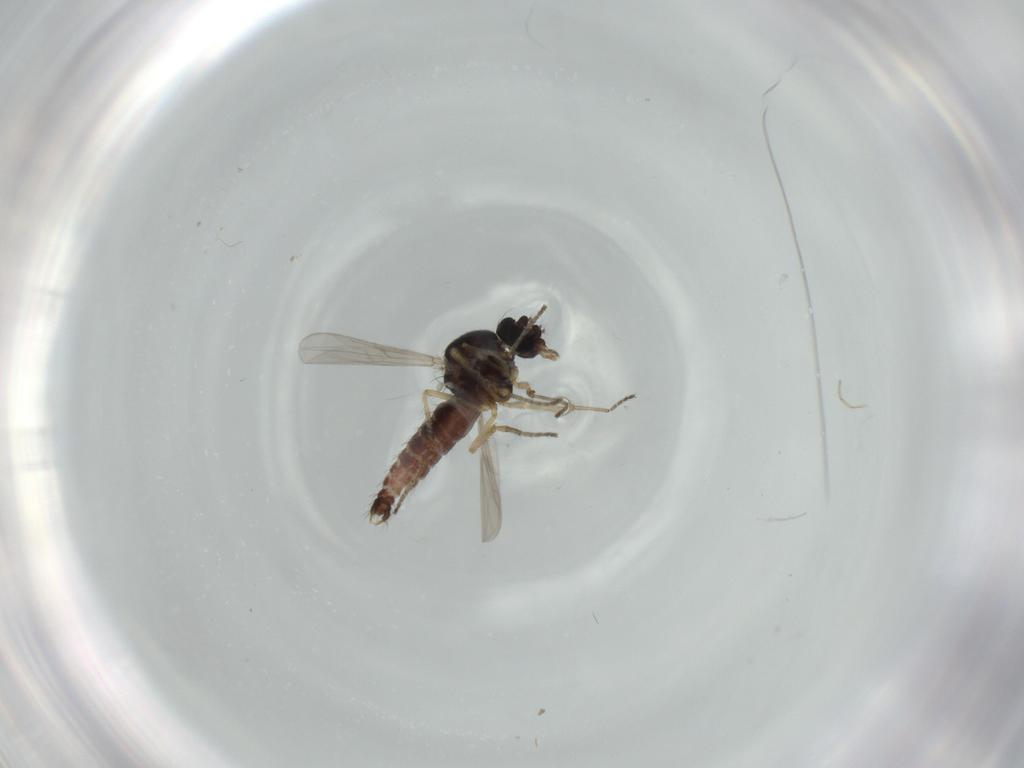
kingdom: Animalia
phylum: Arthropoda
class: Insecta
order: Diptera
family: Ceratopogonidae
